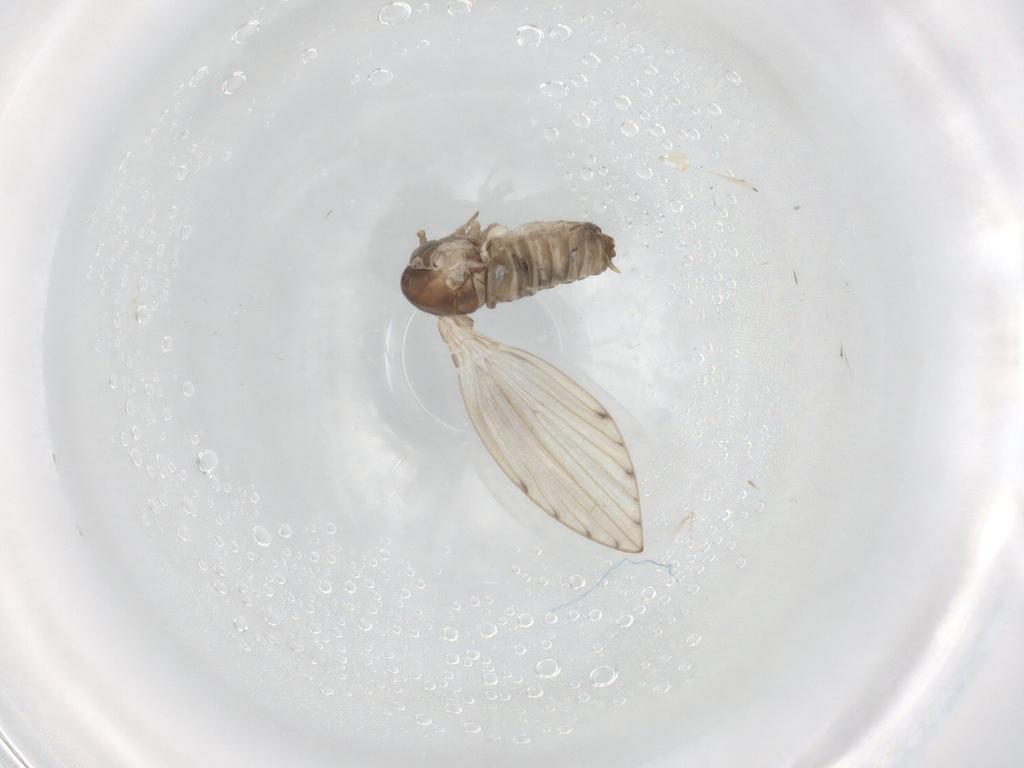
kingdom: Animalia
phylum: Arthropoda
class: Insecta
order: Diptera
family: Psychodidae
